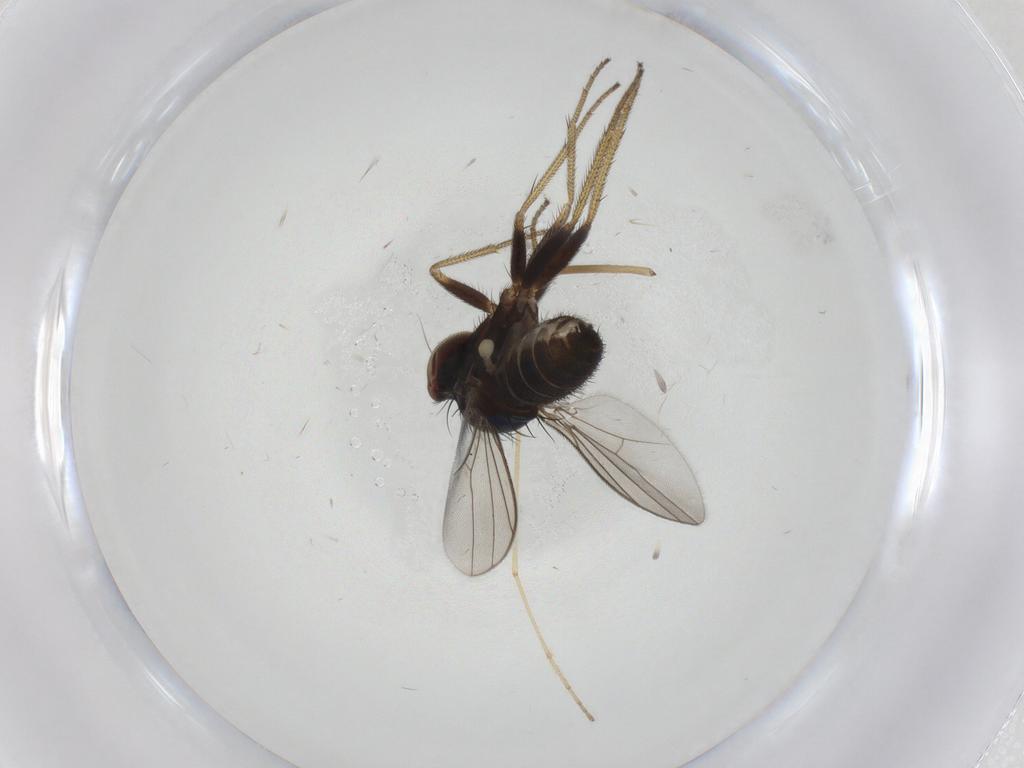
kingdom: Animalia
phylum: Arthropoda
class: Insecta
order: Diptera
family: Limoniidae
